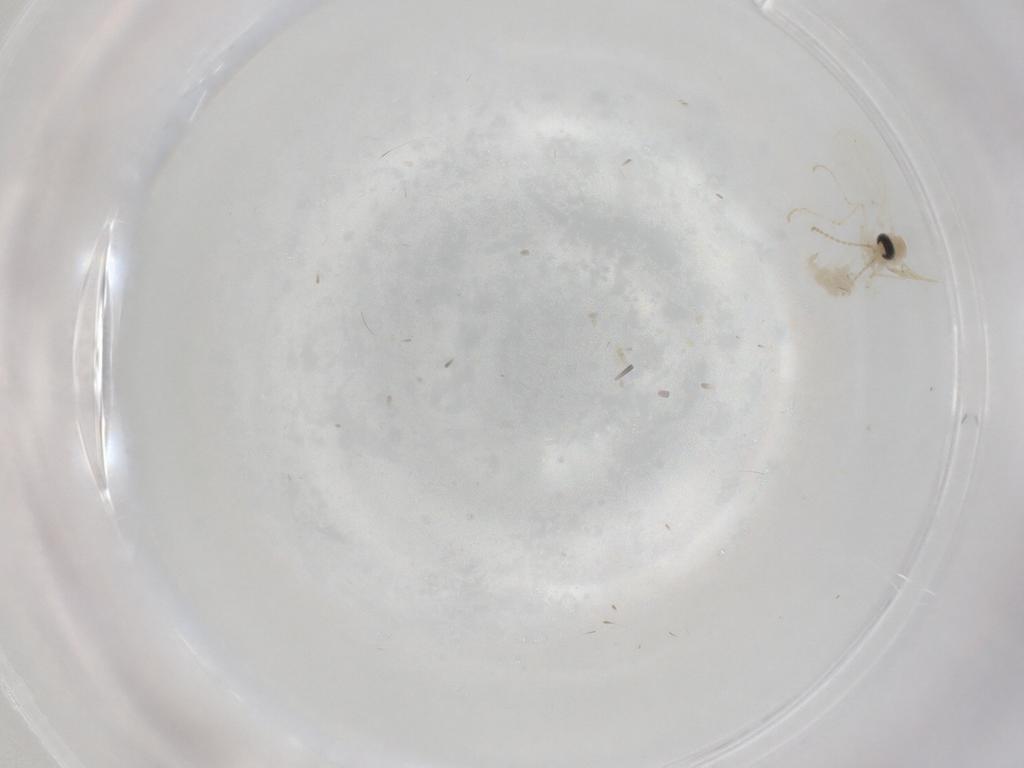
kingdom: Animalia
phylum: Arthropoda
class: Insecta
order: Diptera
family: Cecidomyiidae
